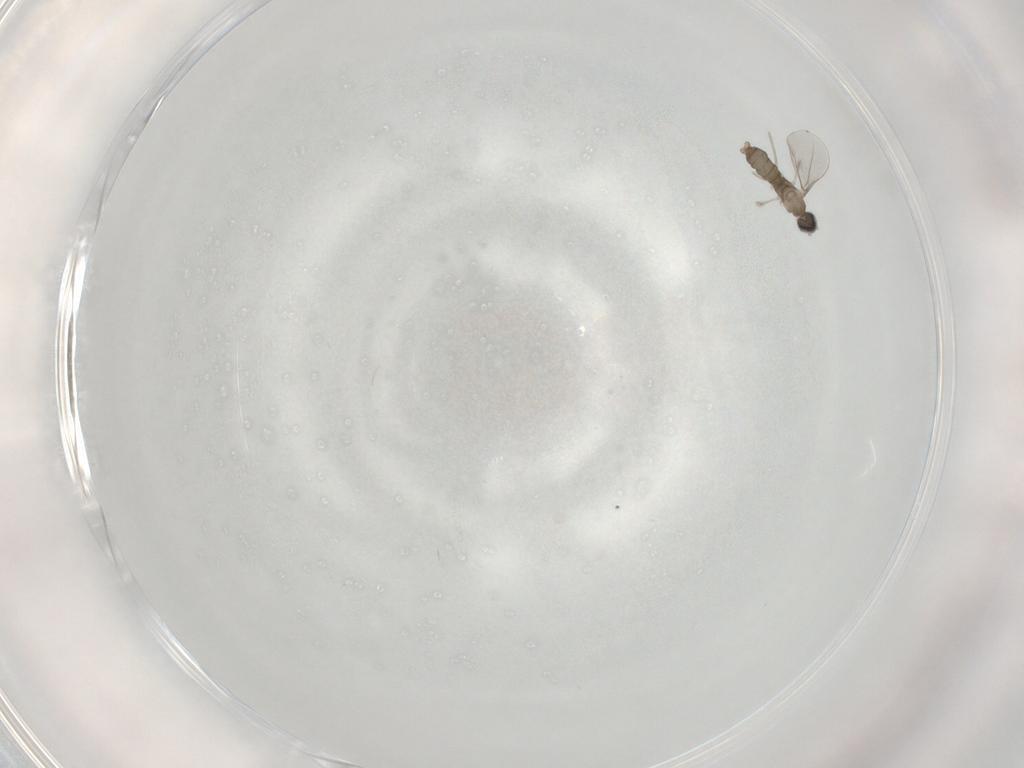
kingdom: Animalia
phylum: Arthropoda
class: Insecta
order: Diptera
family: Cecidomyiidae
